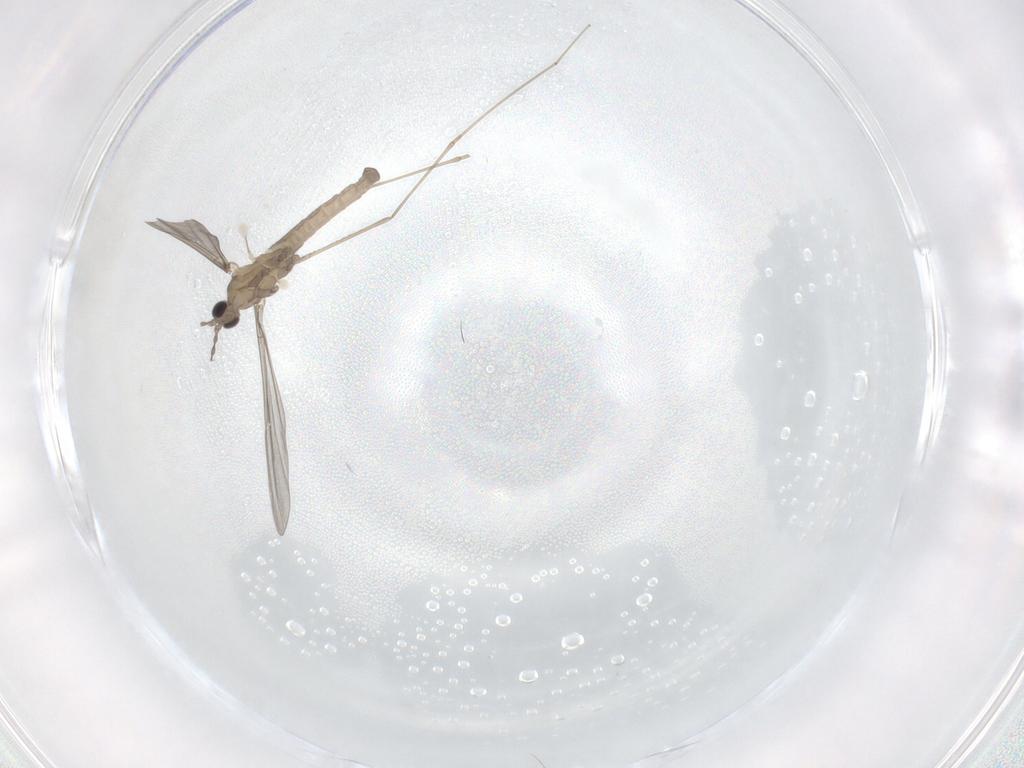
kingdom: Animalia
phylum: Arthropoda
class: Insecta
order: Diptera
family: Cecidomyiidae
